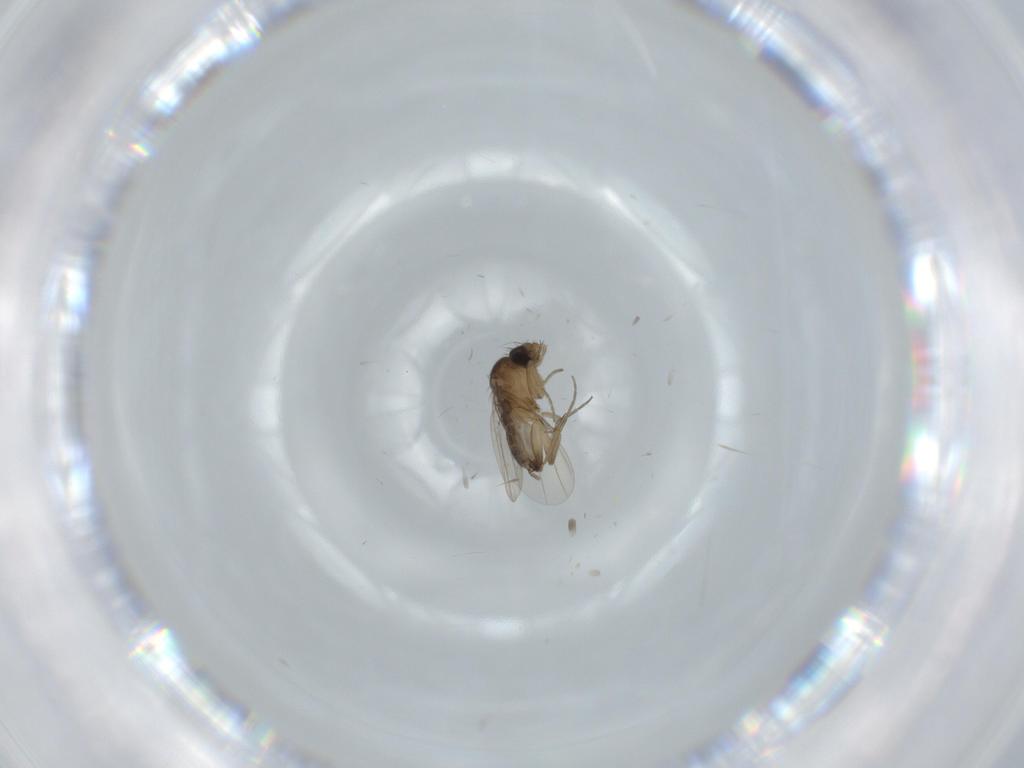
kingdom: Animalia
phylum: Arthropoda
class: Insecta
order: Diptera
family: Phoridae
